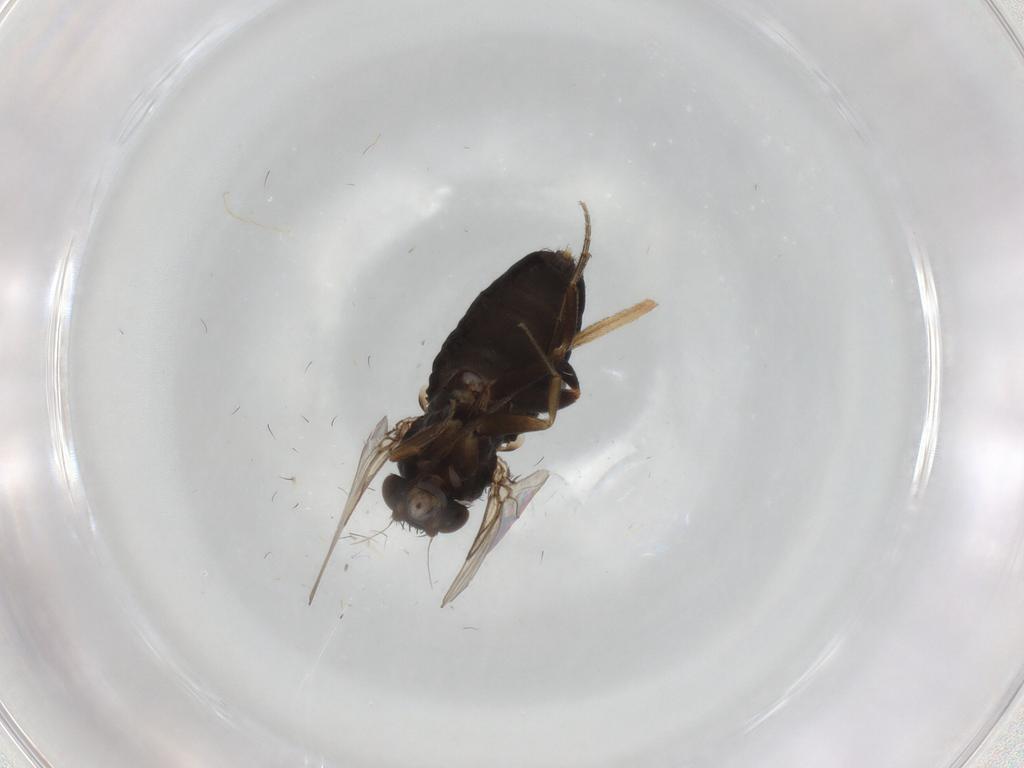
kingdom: Animalia
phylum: Arthropoda
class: Insecta
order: Diptera
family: Phoridae
